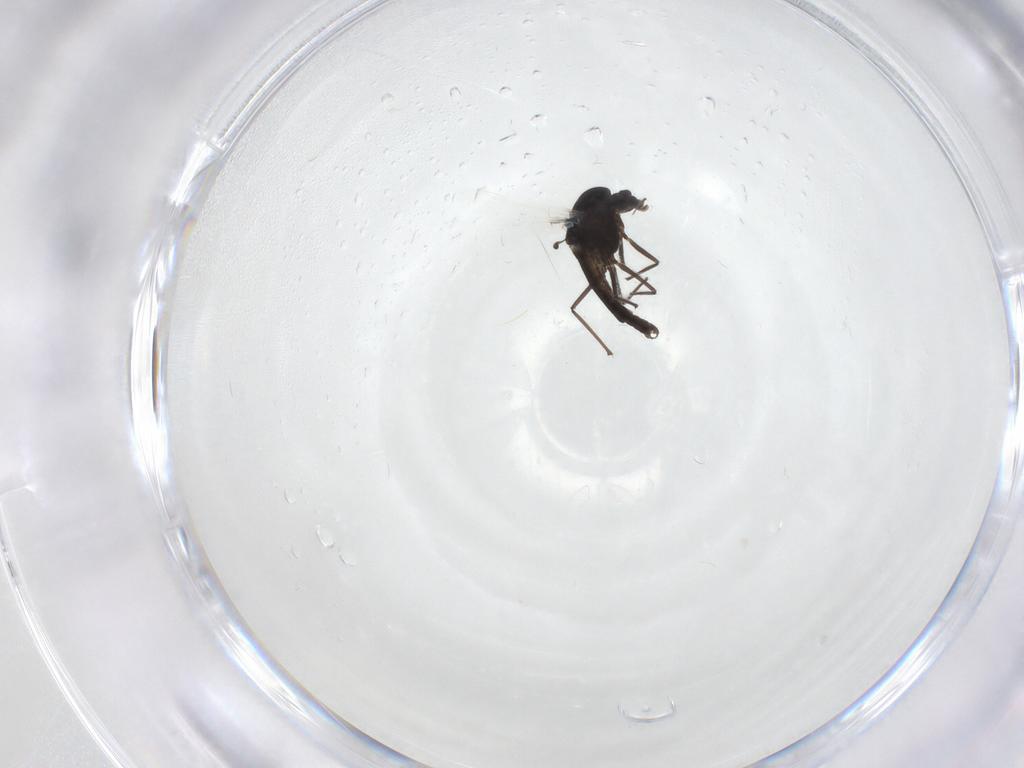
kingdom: Animalia
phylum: Arthropoda
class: Insecta
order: Diptera
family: Chironomidae
